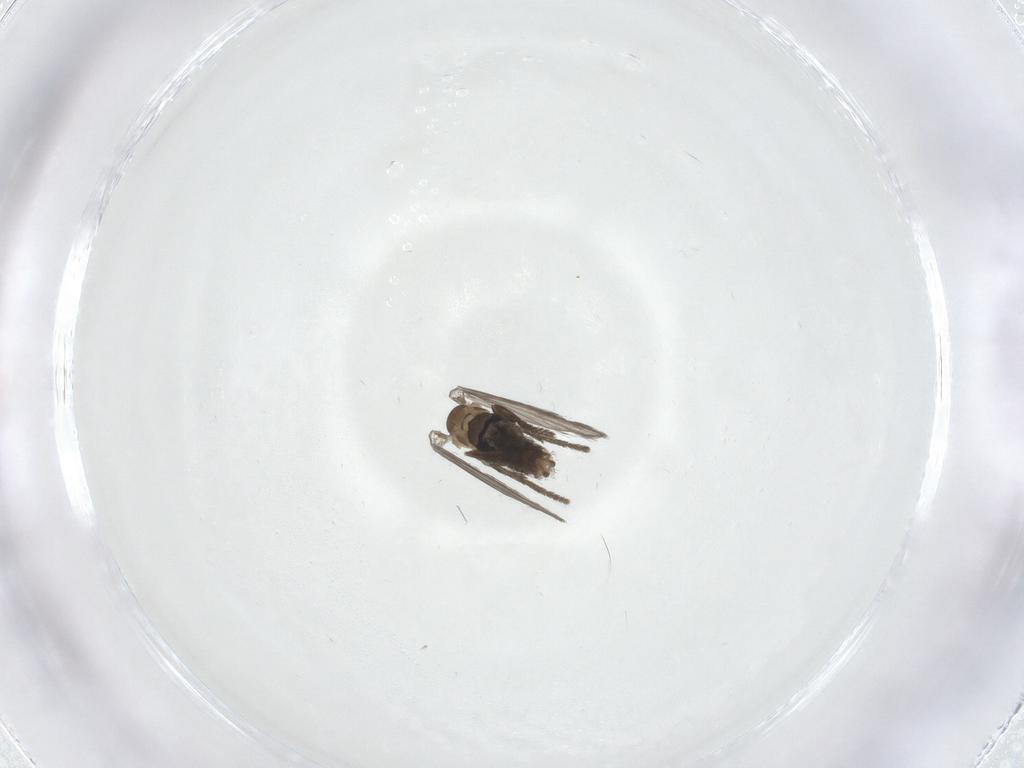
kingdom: Animalia
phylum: Arthropoda
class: Insecta
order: Diptera
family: Psychodidae
